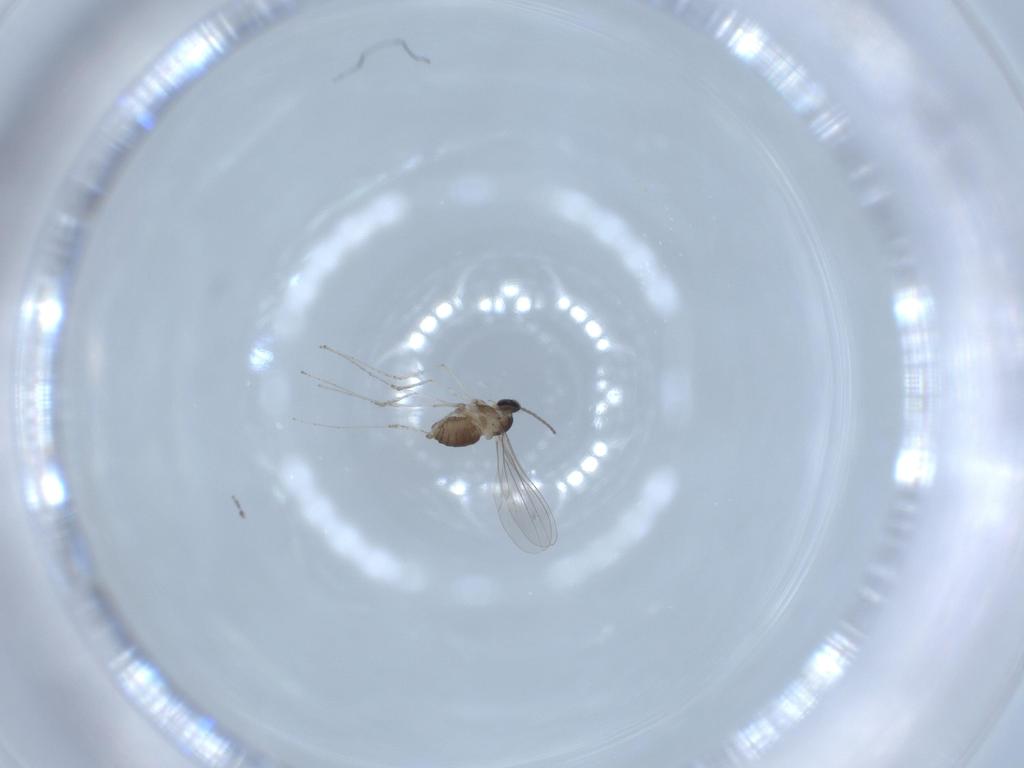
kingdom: Animalia
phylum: Arthropoda
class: Insecta
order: Diptera
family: Cecidomyiidae
